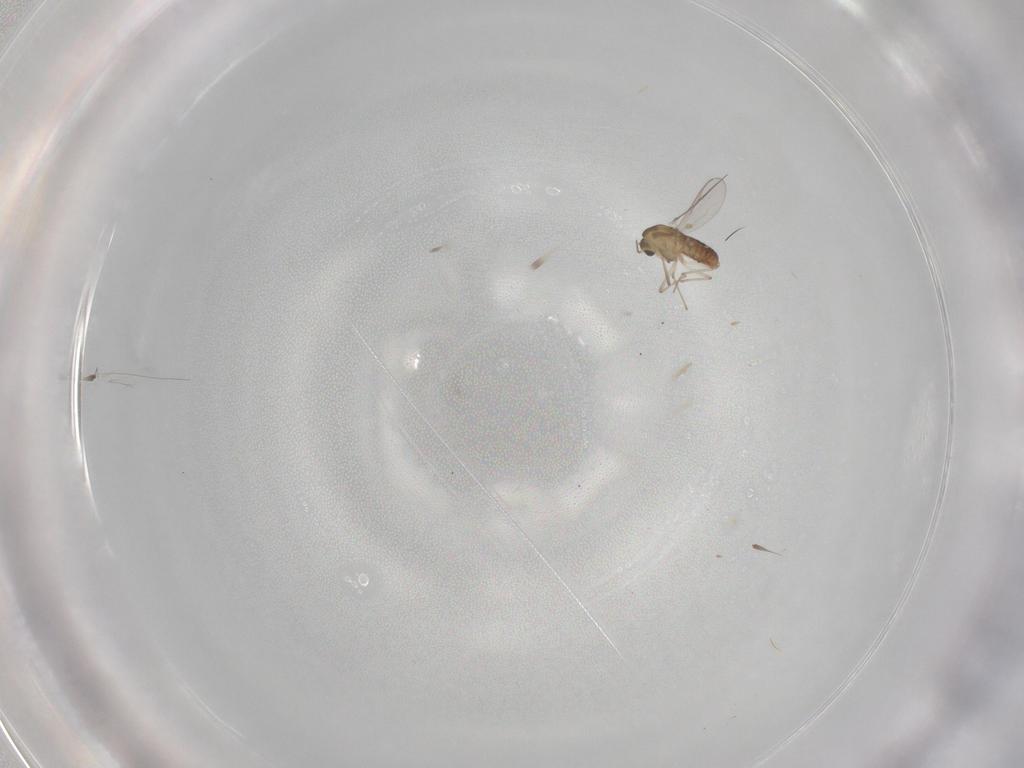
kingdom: Animalia
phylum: Arthropoda
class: Insecta
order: Diptera
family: Chironomidae
